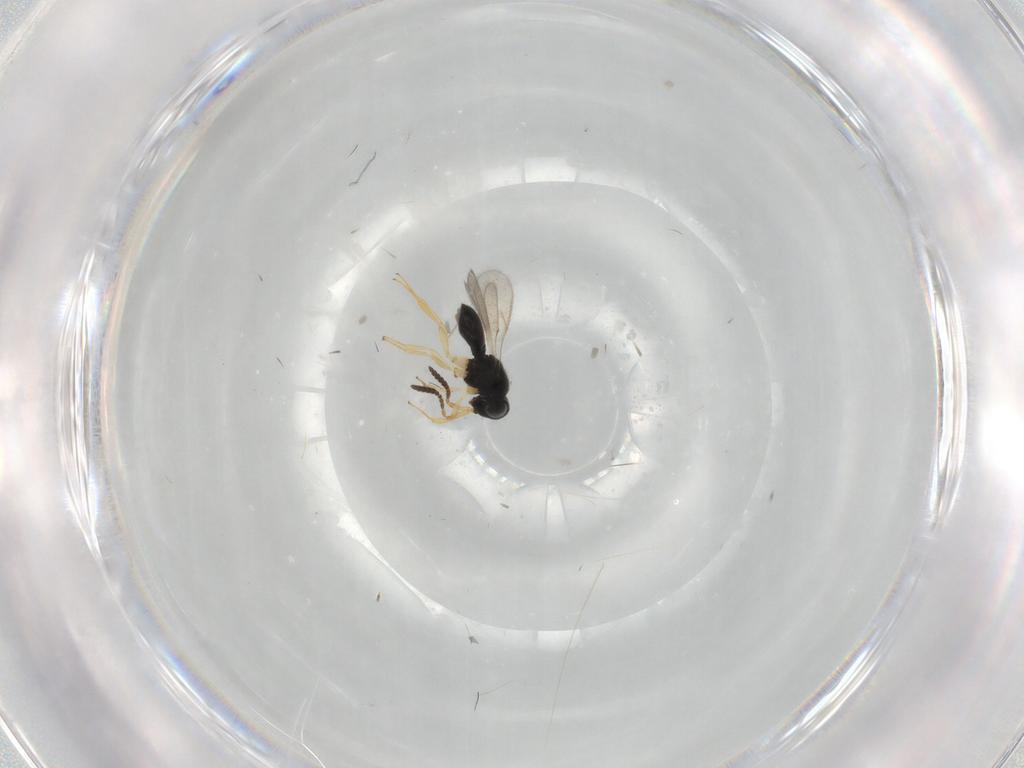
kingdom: Animalia
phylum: Arthropoda
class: Insecta
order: Hymenoptera
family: Scelionidae
